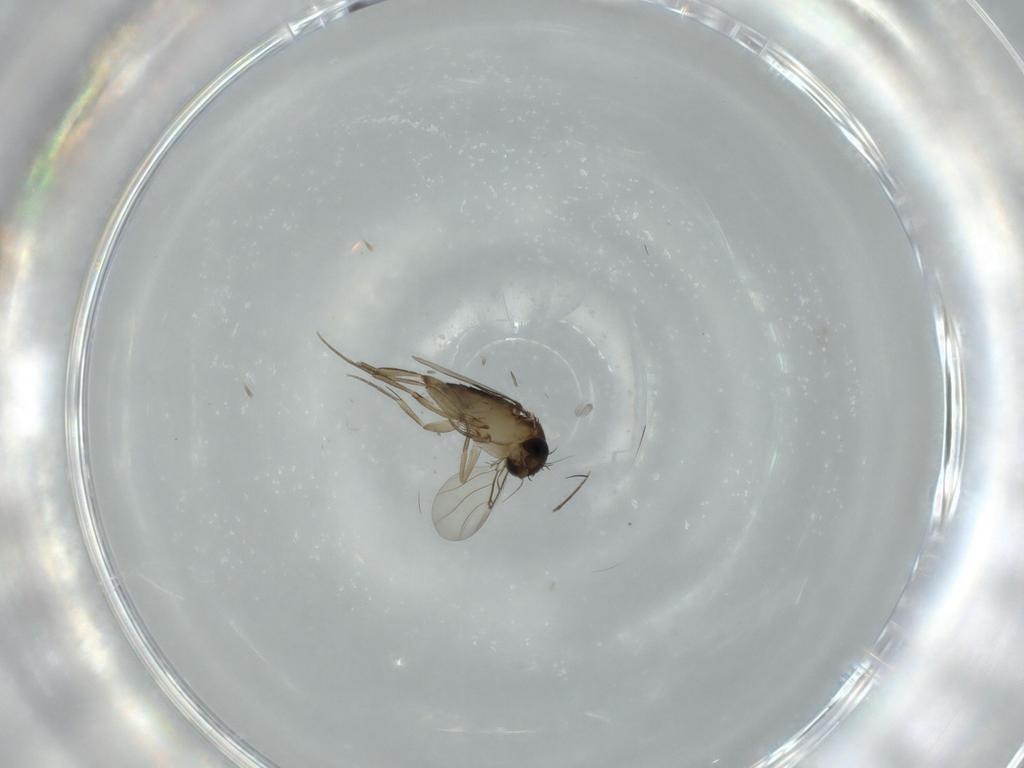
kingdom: Animalia
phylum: Arthropoda
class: Insecta
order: Diptera
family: Phoridae
